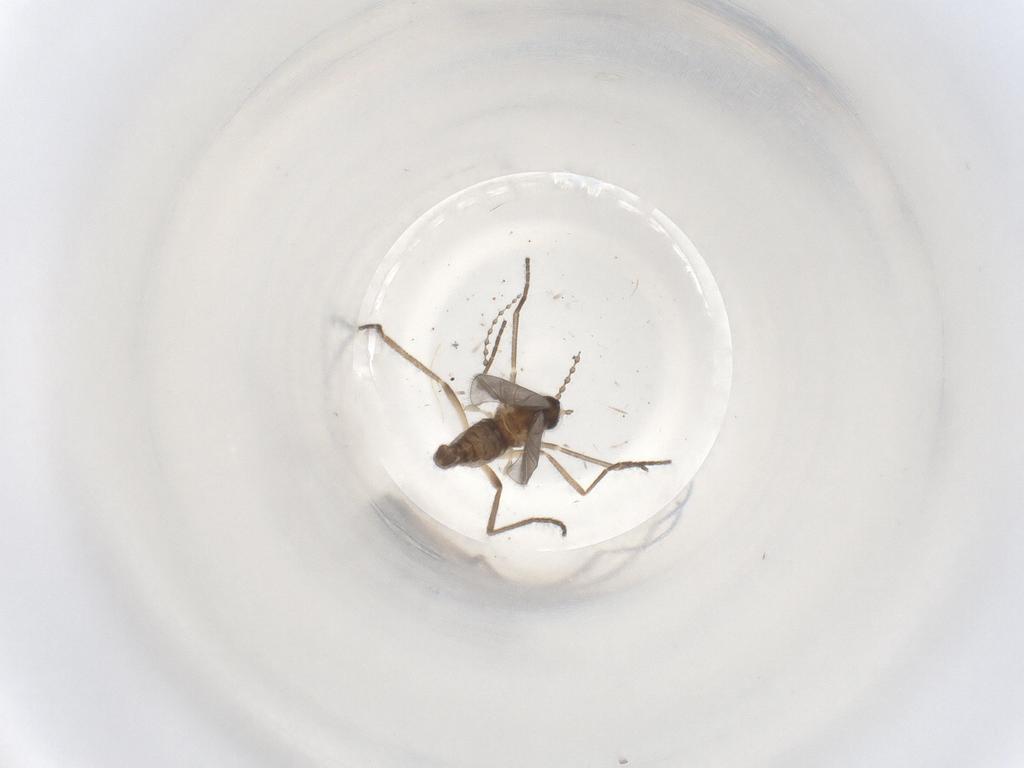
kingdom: Animalia
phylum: Arthropoda
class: Insecta
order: Diptera
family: Cecidomyiidae
